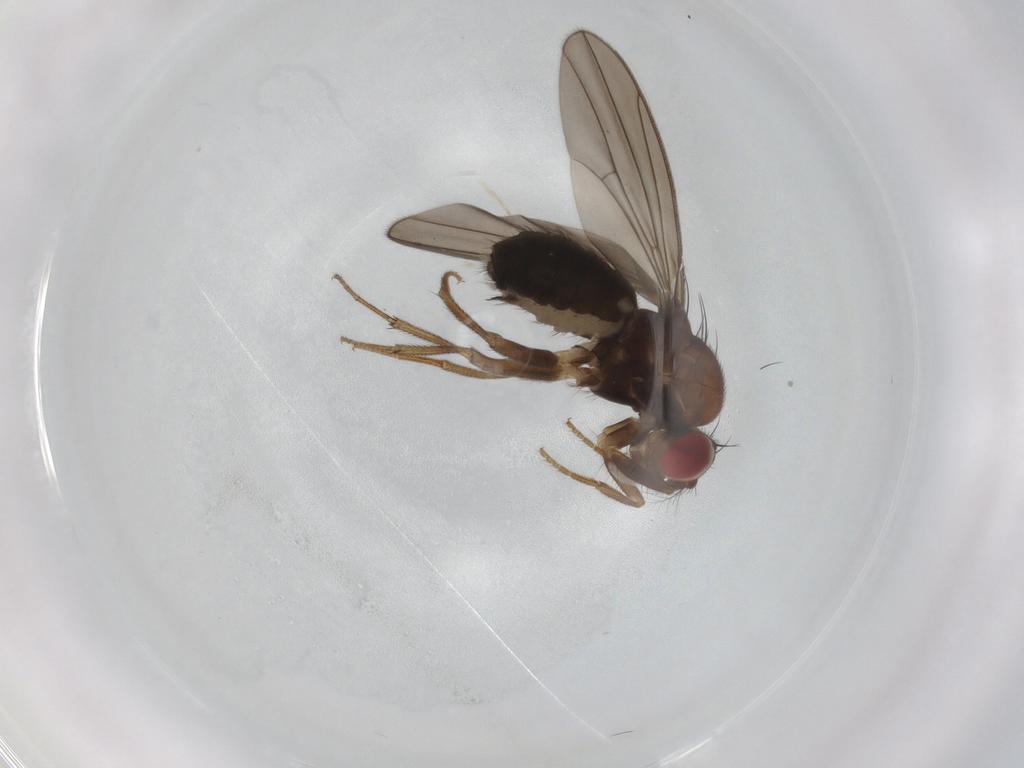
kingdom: Animalia
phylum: Arthropoda
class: Insecta
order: Diptera
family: Drosophilidae
